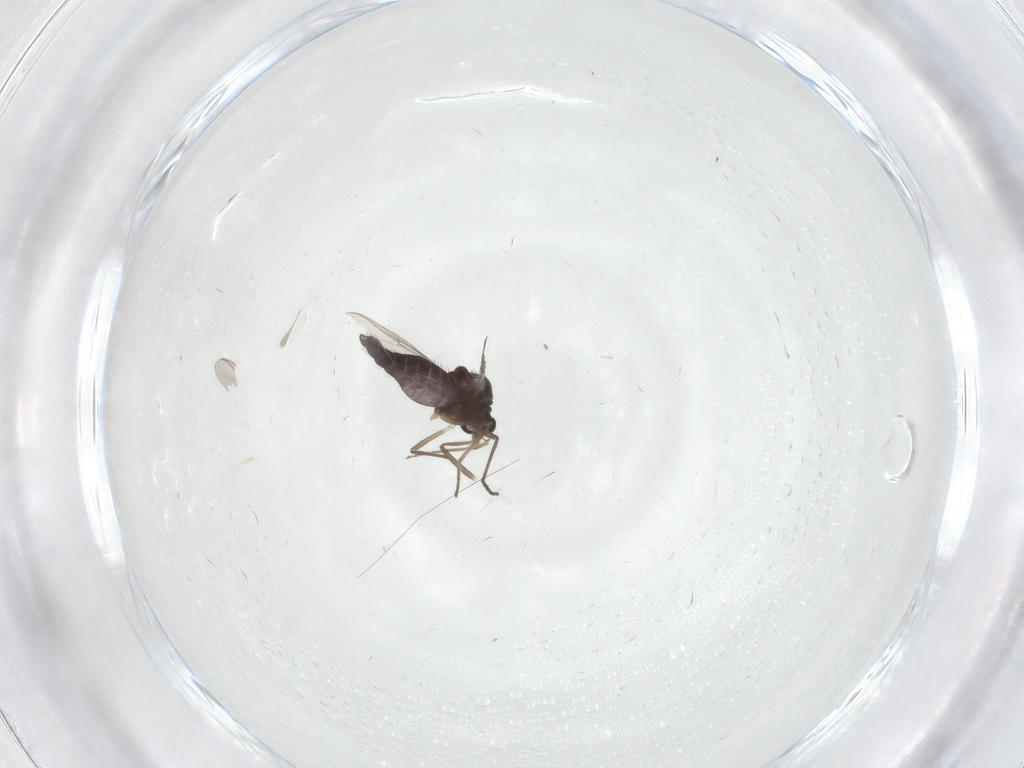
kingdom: Animalia
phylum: Arthropoda
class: Insecta
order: Diptera
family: Chironomidae
